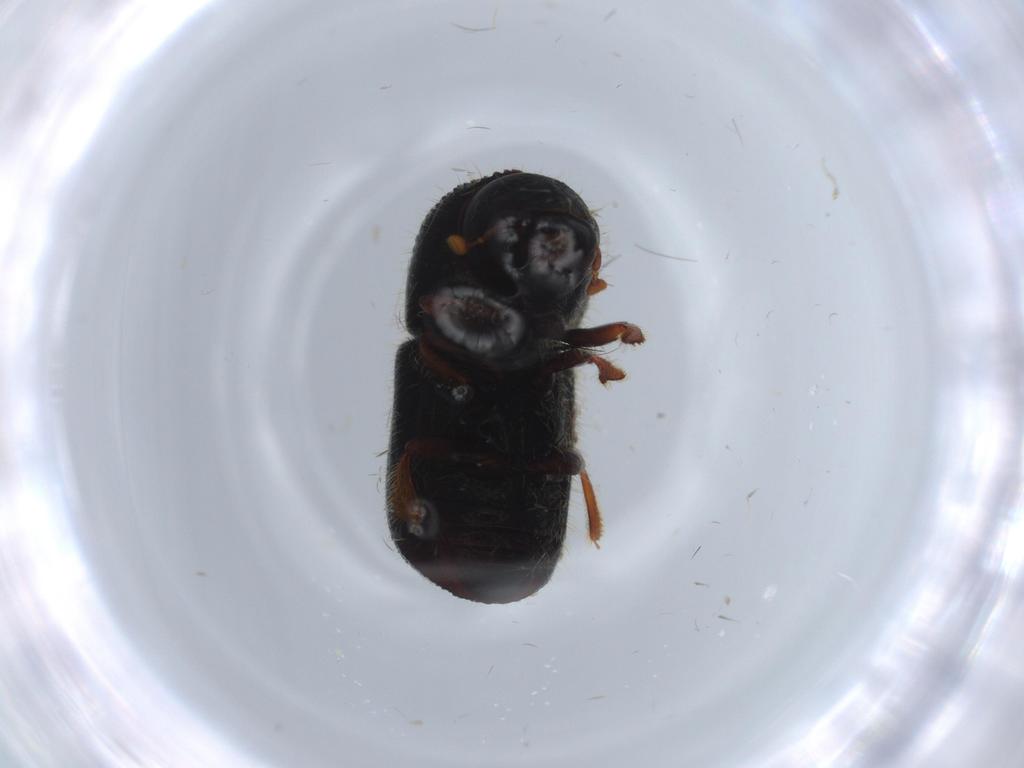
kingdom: Animalia
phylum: Arthropoda
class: Insecta
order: Coleoptera
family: Curculionidae
